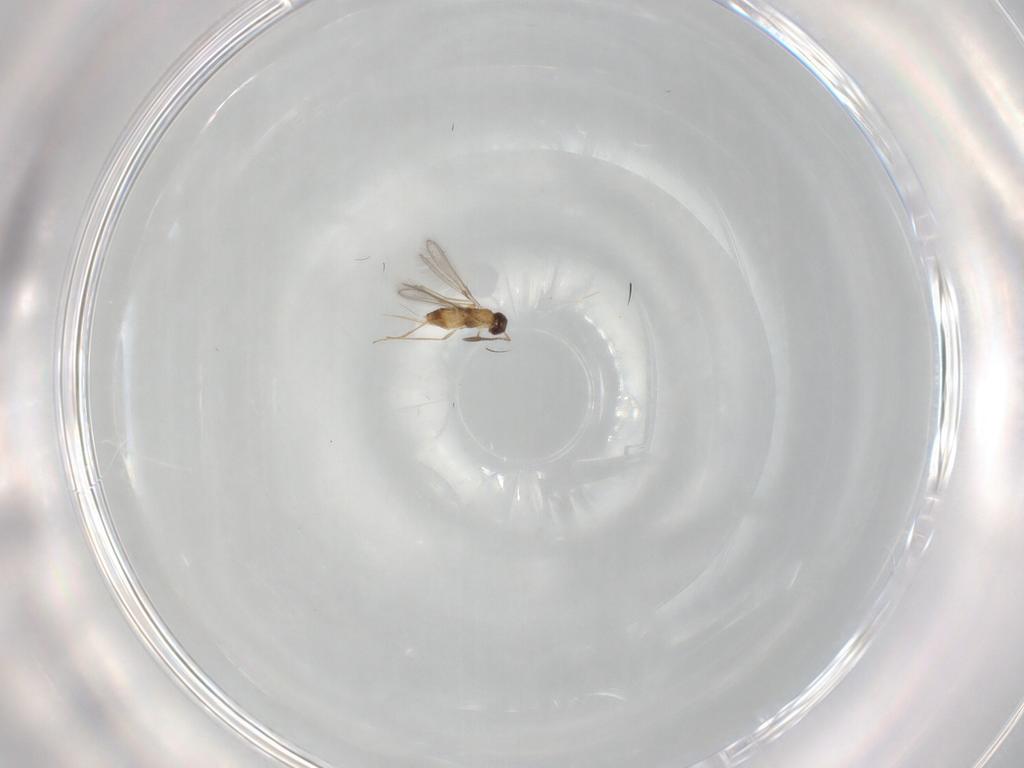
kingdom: Animalia
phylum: Arthropoda
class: Insecta
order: Hymenoptera
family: Mymaridae
